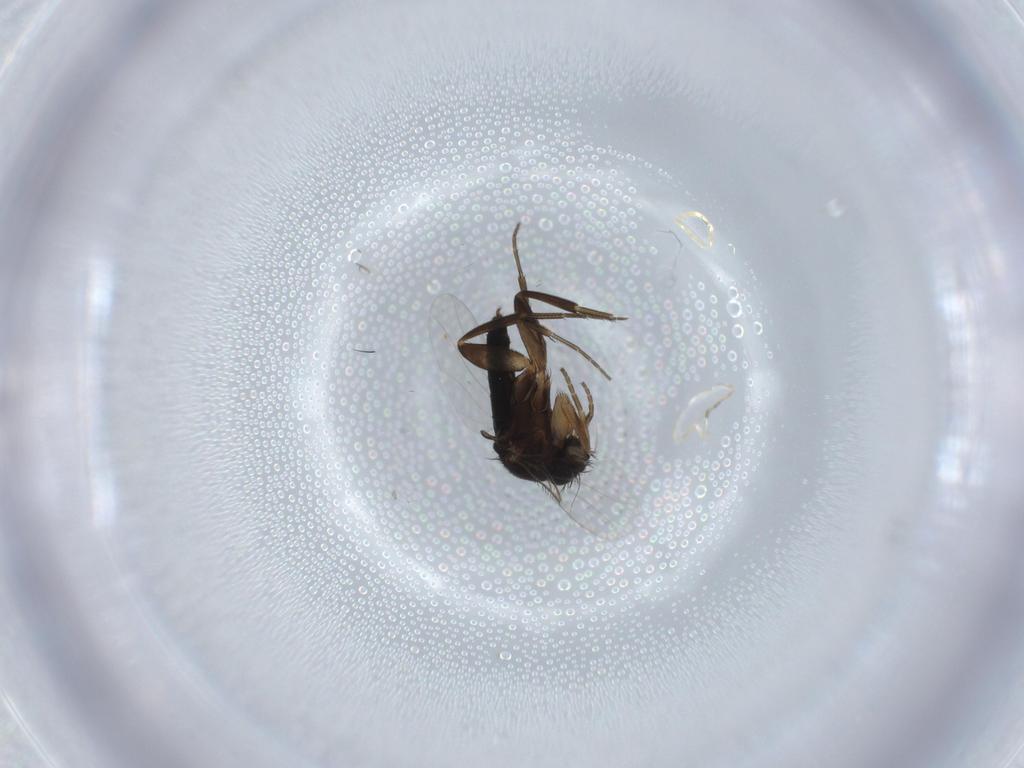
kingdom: Animalia
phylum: Arthropoda
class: Insecta
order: Diptera
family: Phoridae
